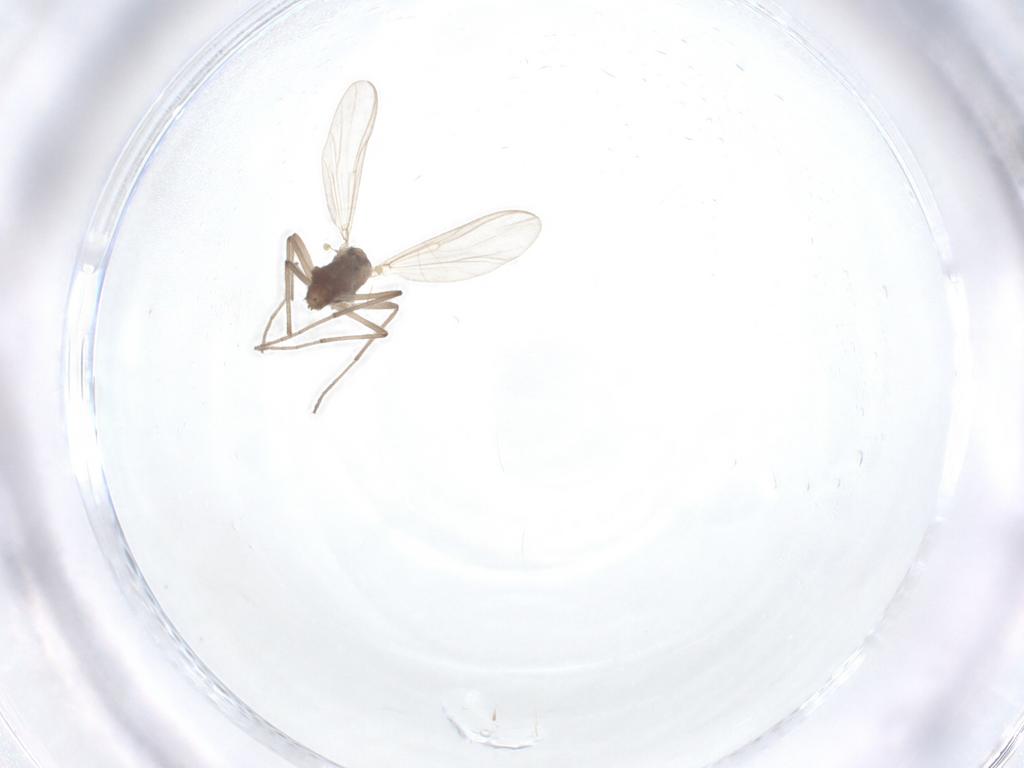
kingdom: Animalia
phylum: Arthropoda
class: Insecta
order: Diptera
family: Chironomidae
